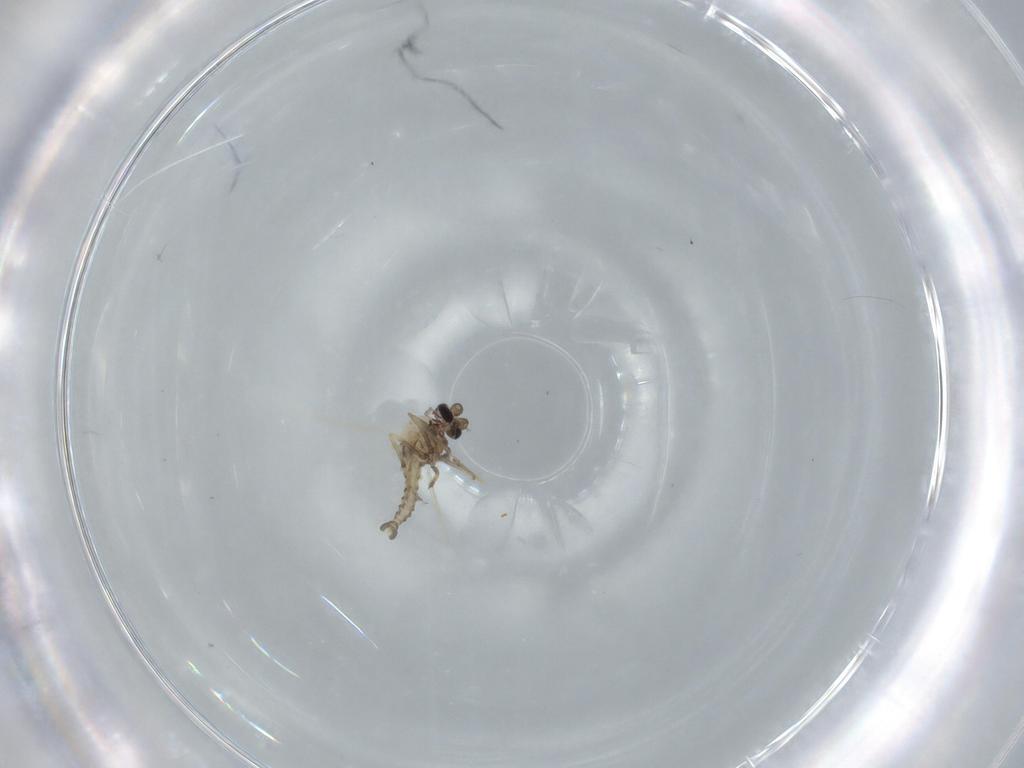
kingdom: Animalia
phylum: Arthropoda
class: Insecta
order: Diptera
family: Ceratopogonidae
